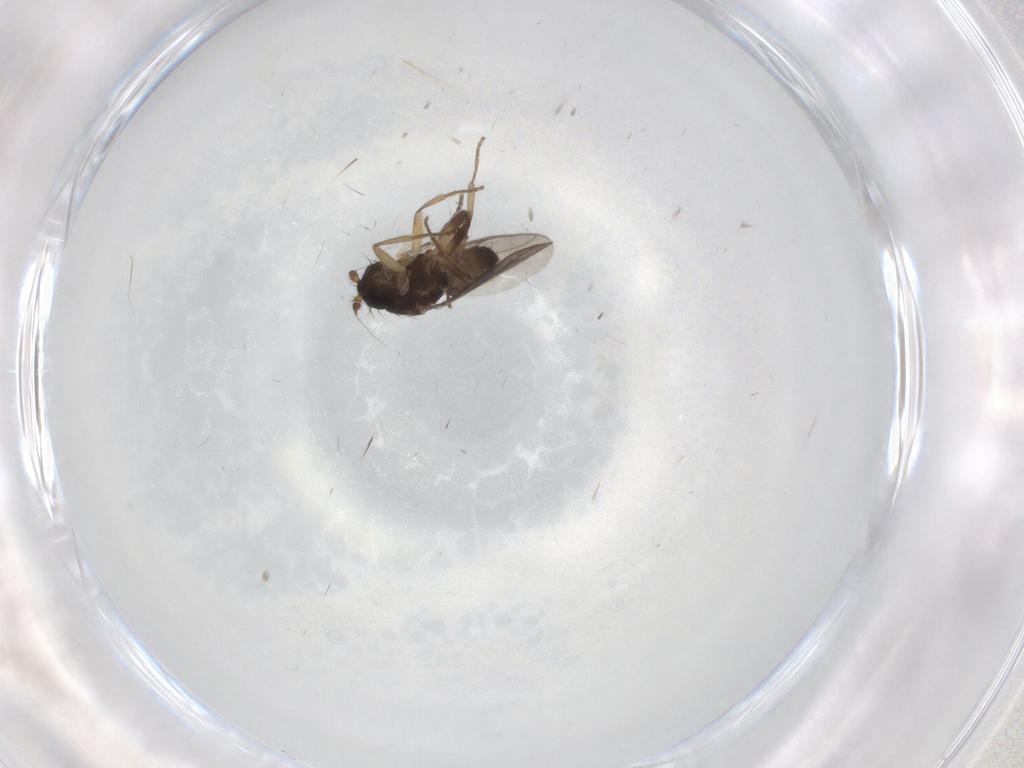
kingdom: Animalia
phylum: Arthropoda
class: Insecta
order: Diptera
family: Sphaeroceridae
